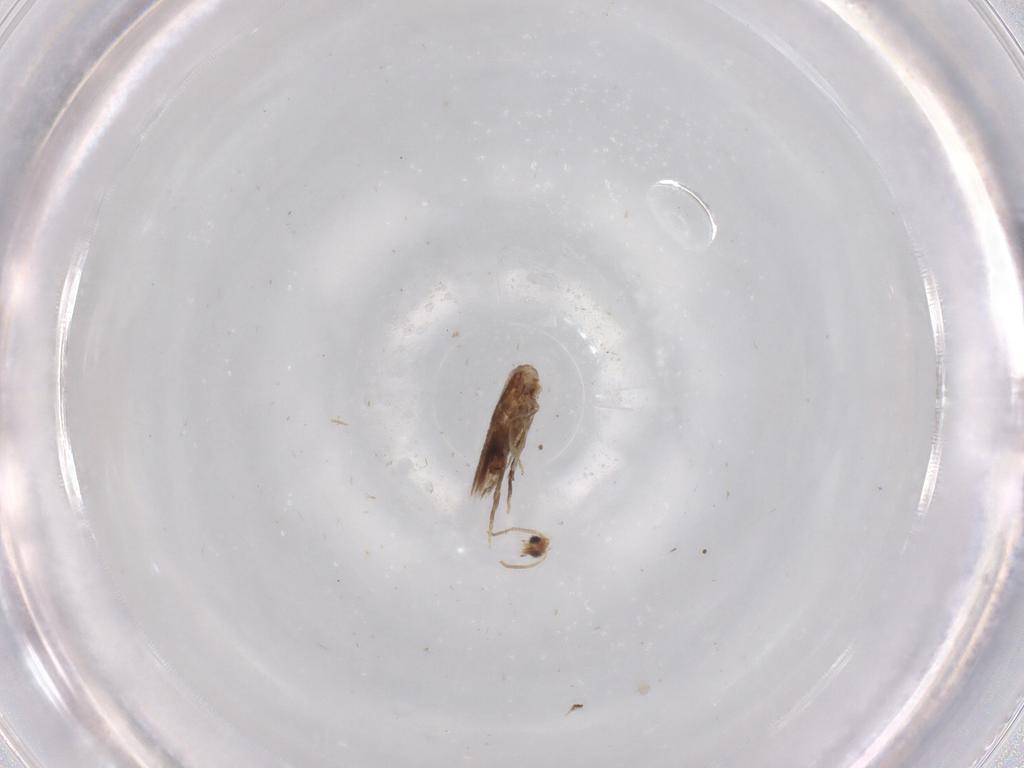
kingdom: Animalia
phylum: Arthropoda
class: Insecta
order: Lepidoptera
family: Nepticulidae
